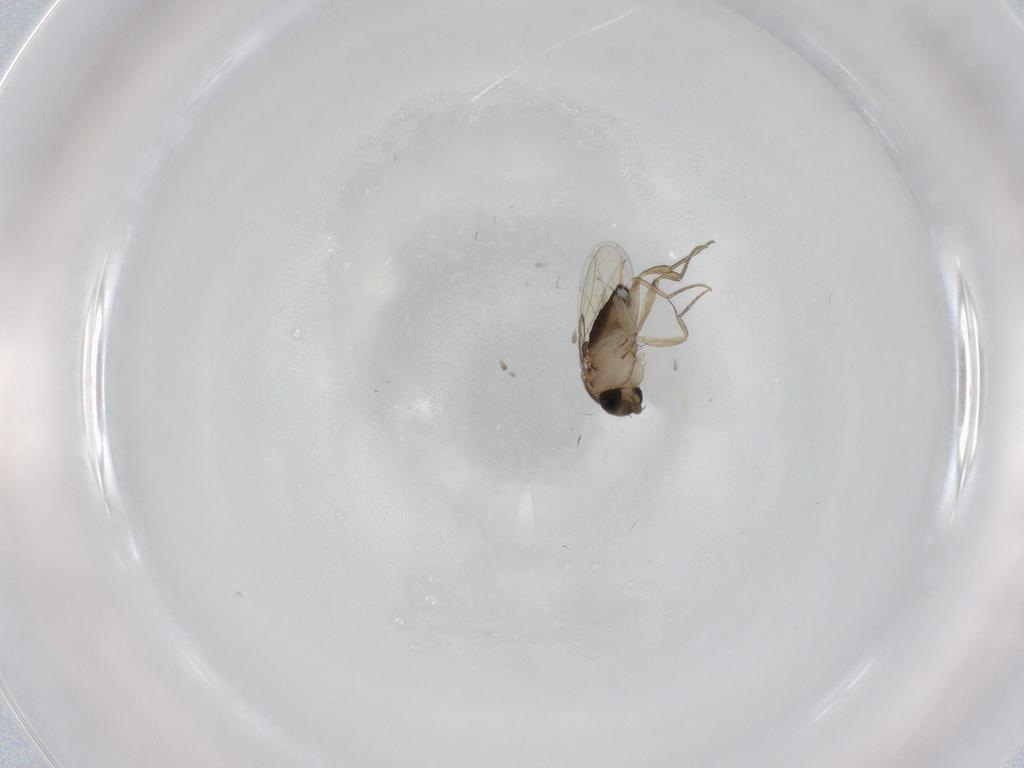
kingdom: Animalia
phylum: Arthropoda
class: Insecta
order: Diptera
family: Phoridae
